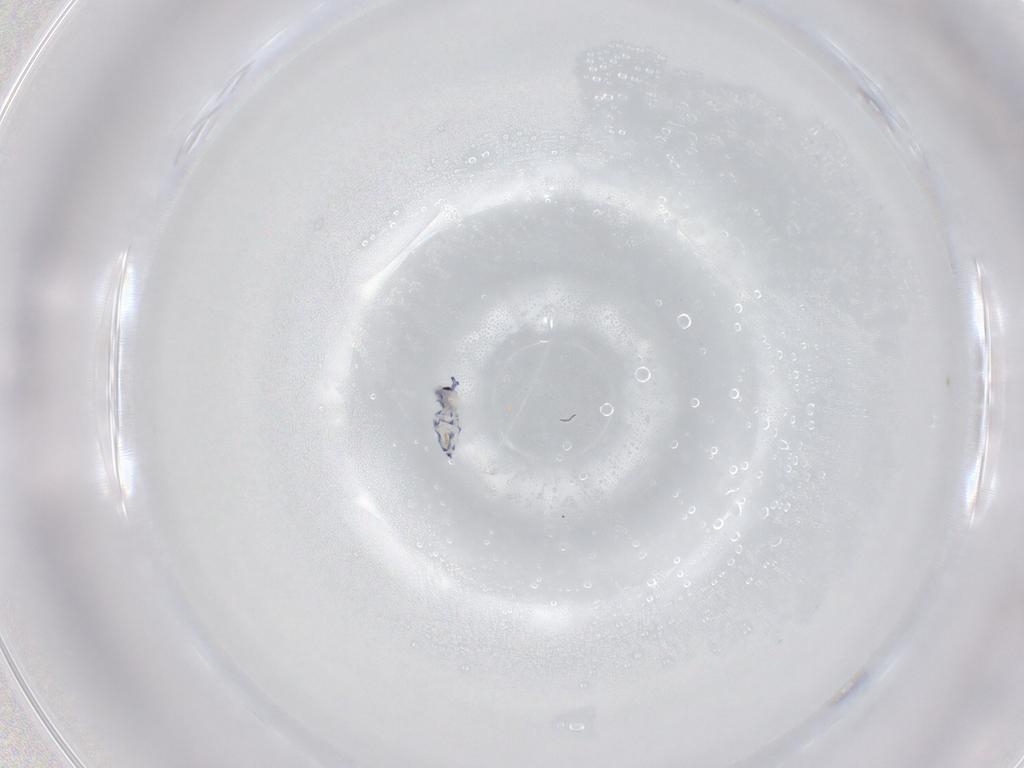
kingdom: Animalia
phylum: Arthropoda
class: Collembola
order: Entomobryomorpha
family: Entomobryidae
